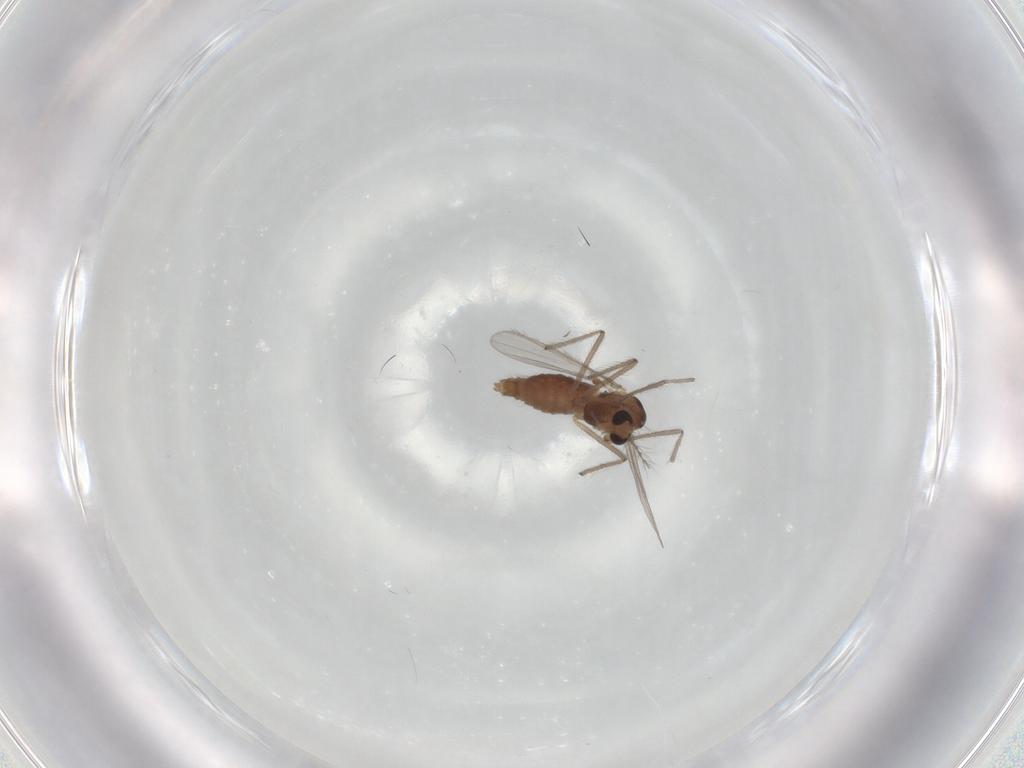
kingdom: Animalia
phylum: Arthropoda
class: Insecta
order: Diptera
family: Chironomidae
